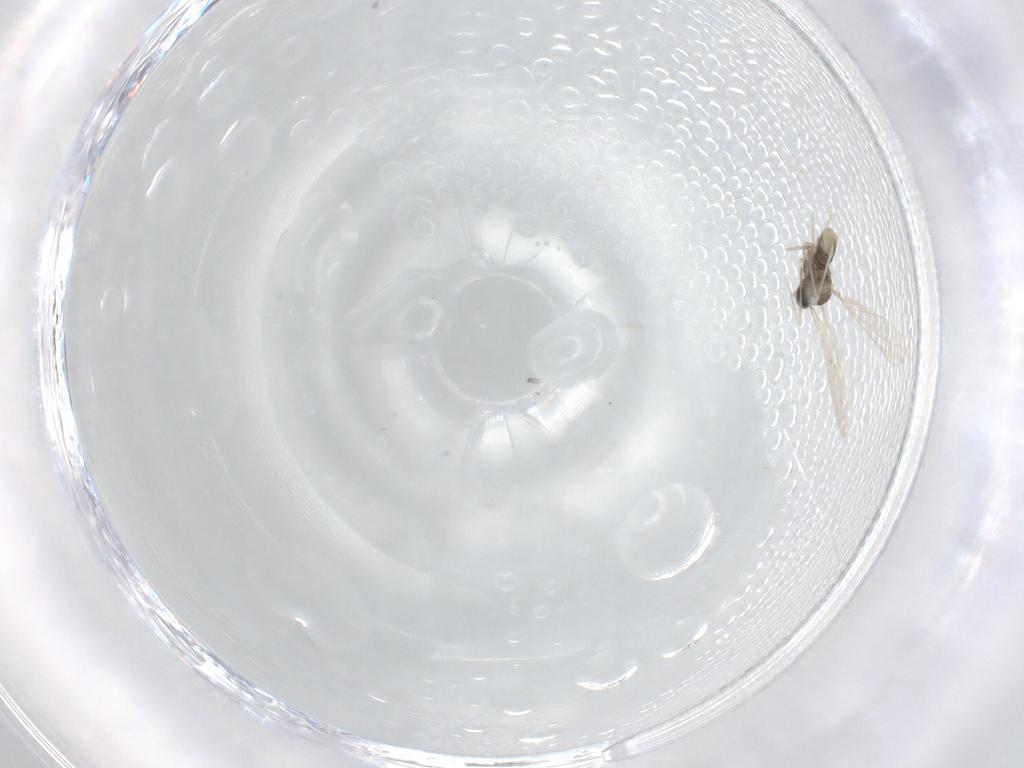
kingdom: Animalia
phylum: Arthropoda
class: Insecta
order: Diptera
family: Cecidomyiidae
